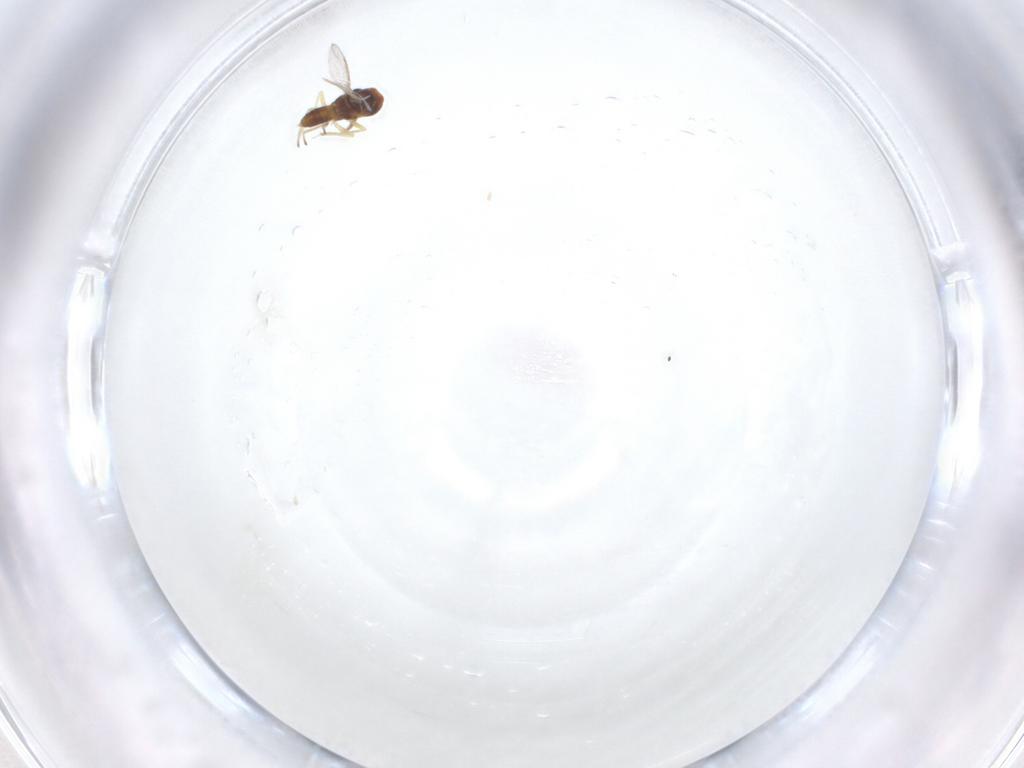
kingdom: Animalia
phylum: Arthropoda
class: Insecta
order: Hymenoptera
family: Eulophidae
